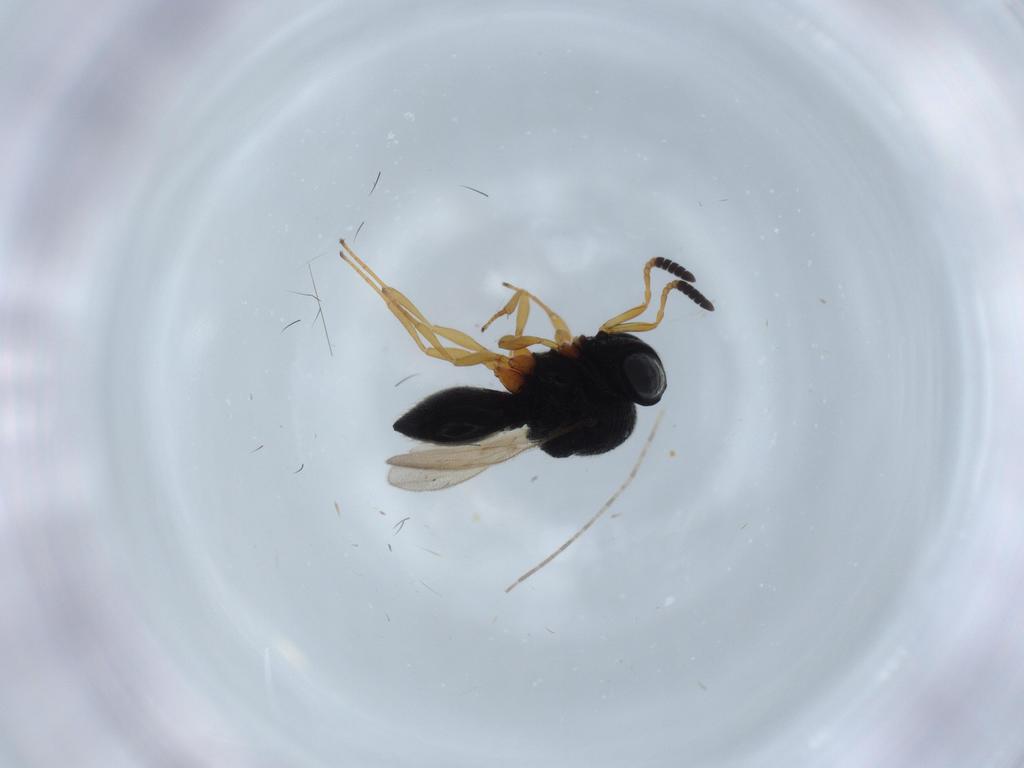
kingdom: Animalia
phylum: Arthropoda
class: Insecta
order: Hymenoptera
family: Scelionidae
